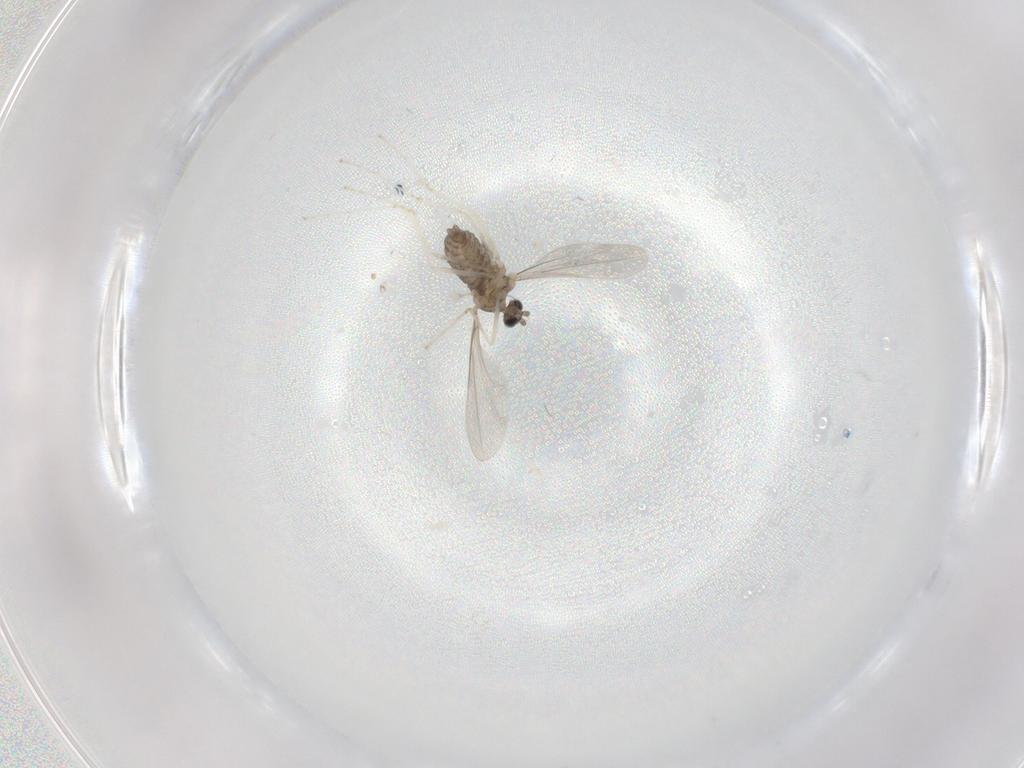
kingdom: Animalia
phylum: Arthropoda
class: Insecta
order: Diptera
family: Cecidomyiidae
